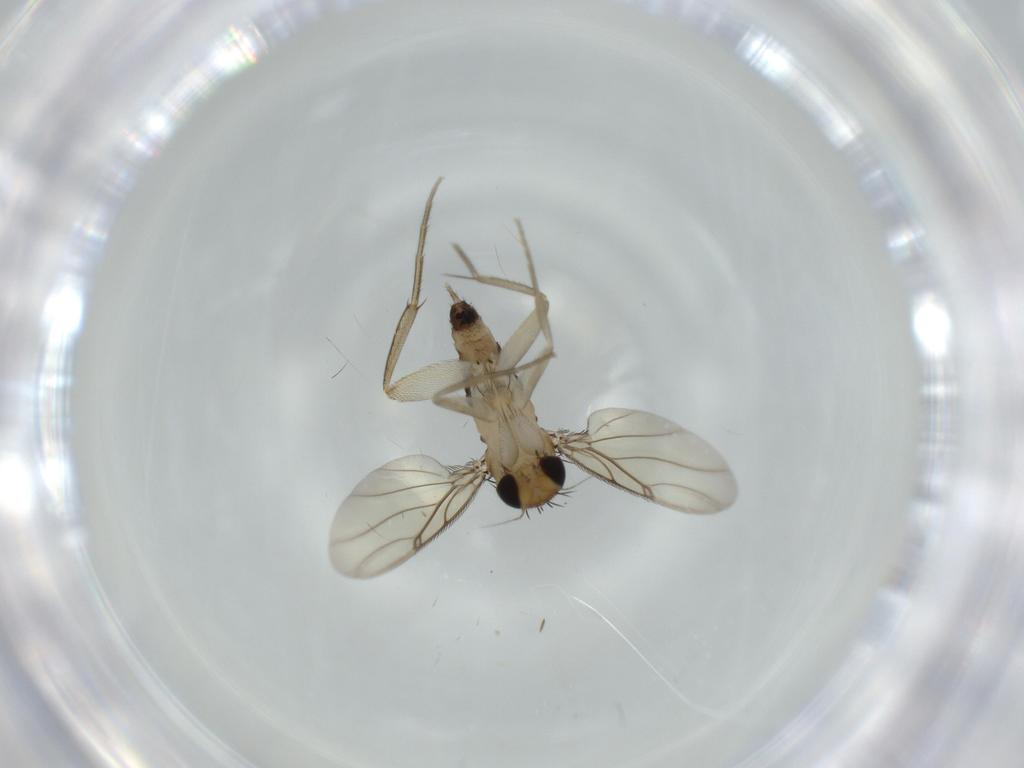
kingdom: Animalia
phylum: Arthropoda
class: Insecta
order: Diptera
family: Phoridae
